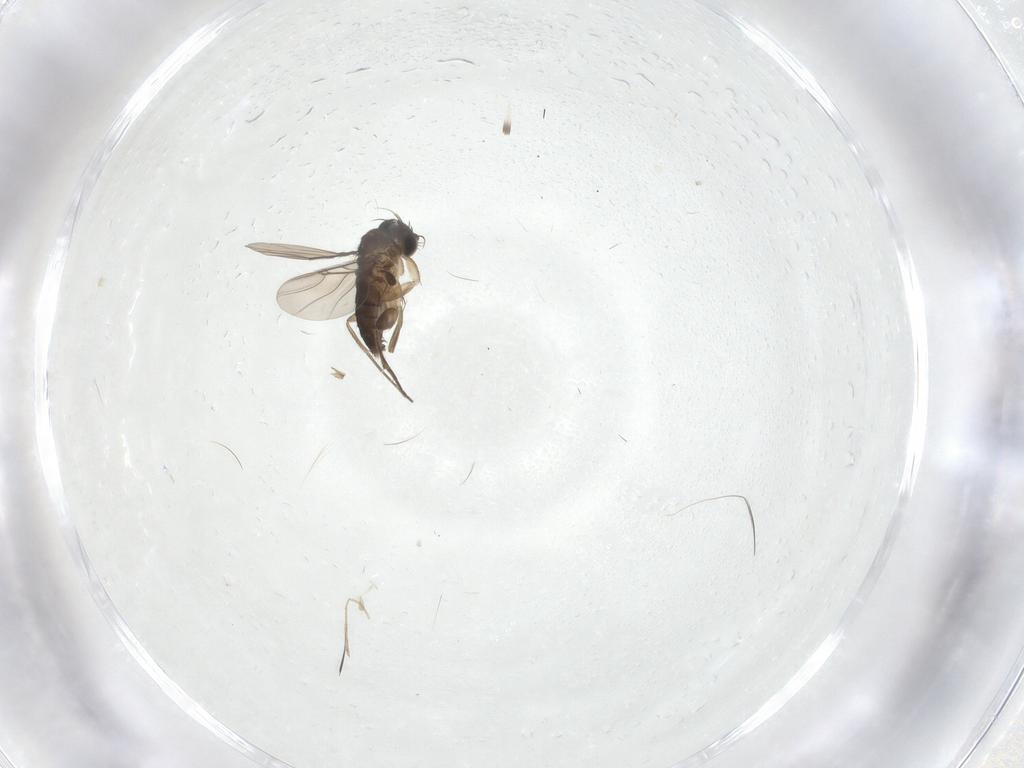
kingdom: Animalia
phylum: Arthropoda
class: Insecta
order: Diptera
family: Phoridae
